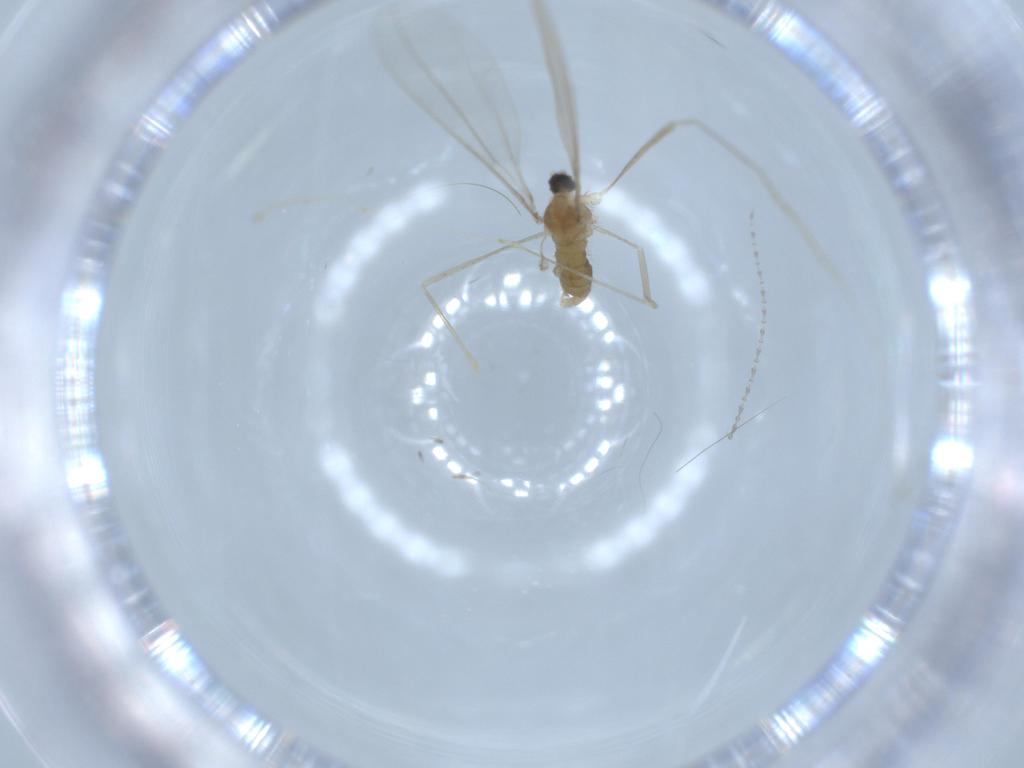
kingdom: Animalia
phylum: Arthropoda
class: Insecta
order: Diptera
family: Cecidomyiidae
